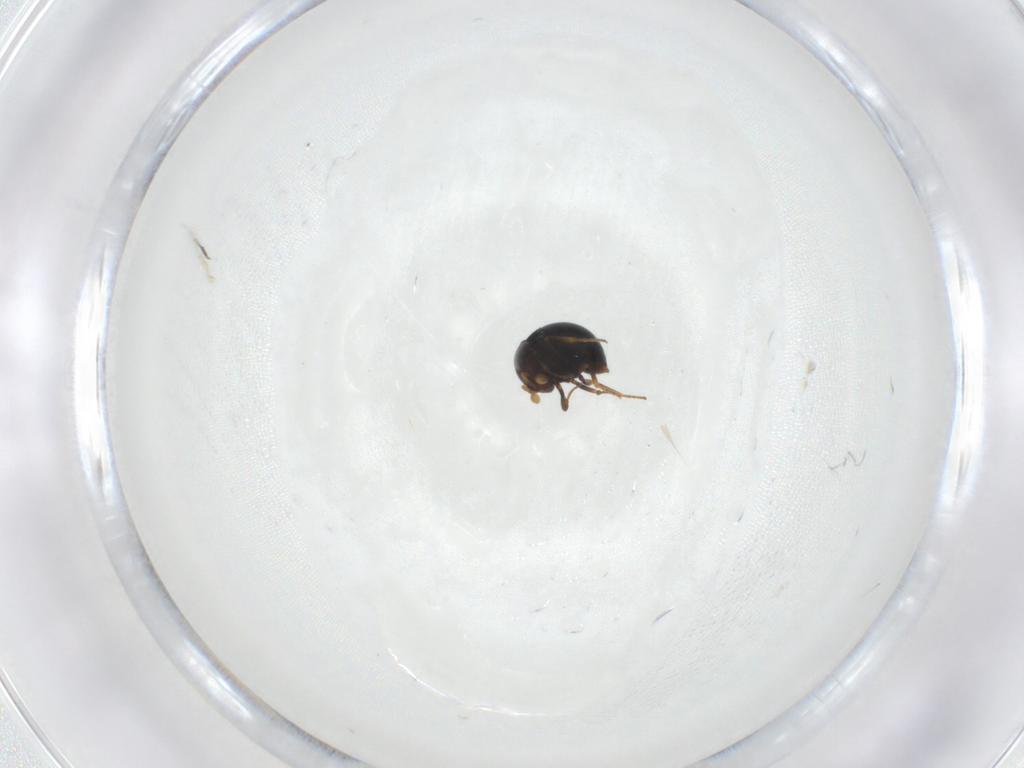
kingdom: Animalia
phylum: Arthropoda
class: Insecta
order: Hymenoptera
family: Scelionidae
